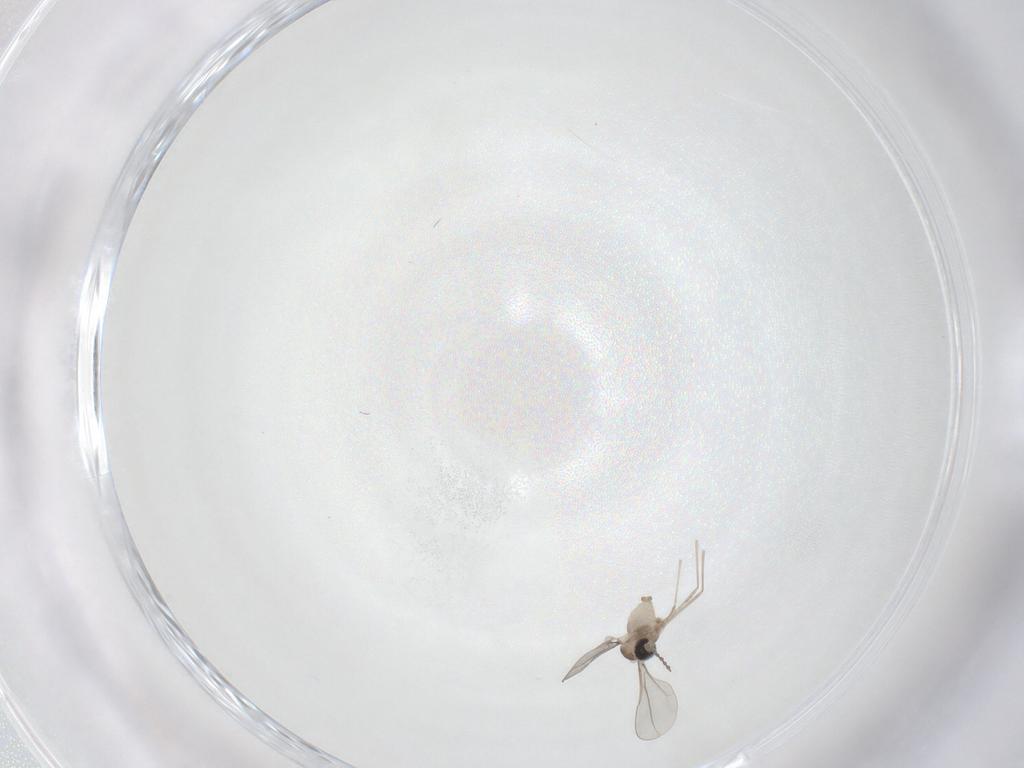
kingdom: Animalia
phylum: Arthropoda
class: Insecta
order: Diptera
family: Cecidomyiidae
